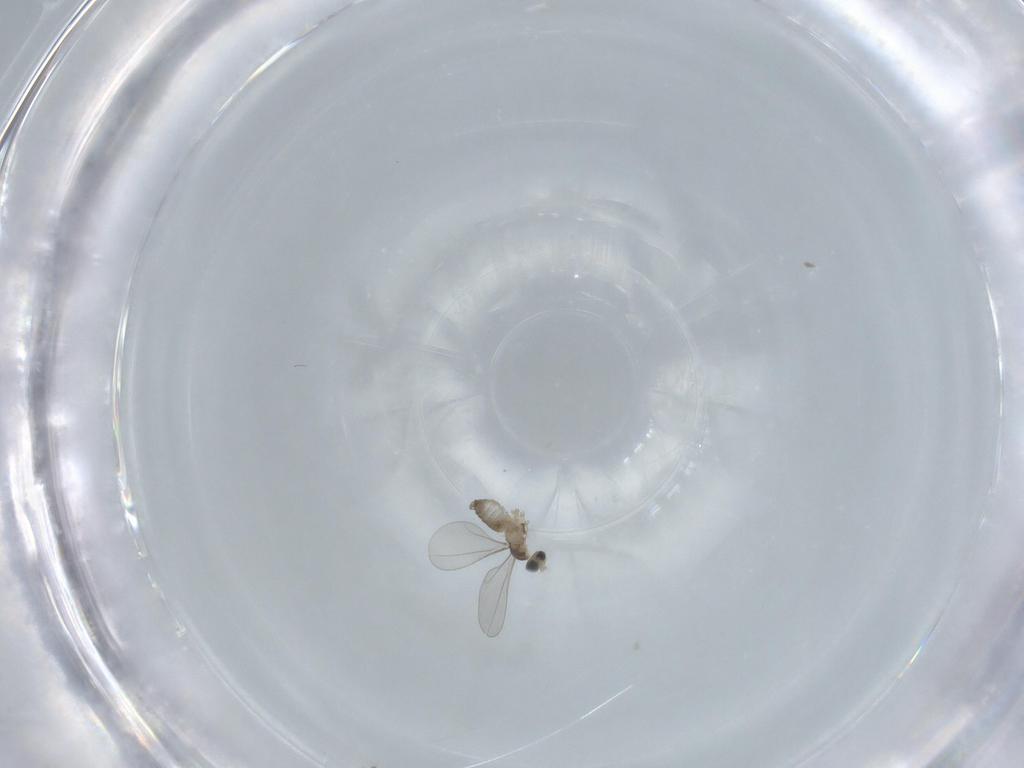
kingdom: Animalia
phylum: Arthropoda
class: Insecta
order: Diptera
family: Cecidomyiidae
